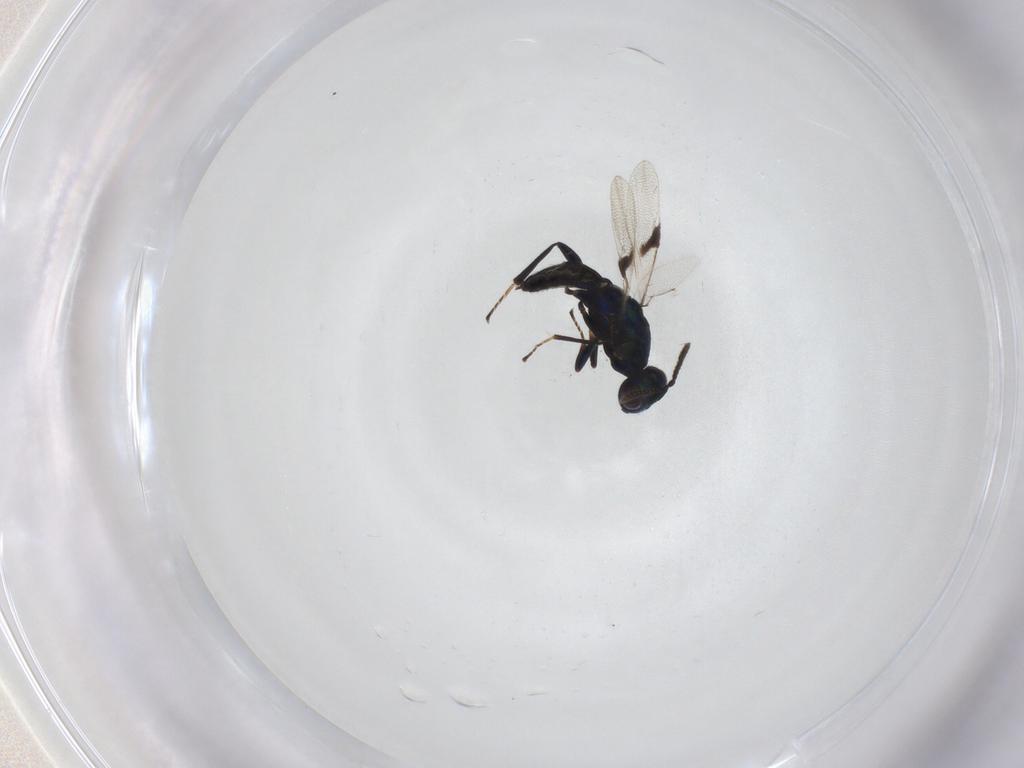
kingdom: Animalia
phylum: Arthropoda
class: Insecta
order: Hymenoptera
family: Pteromalidae
